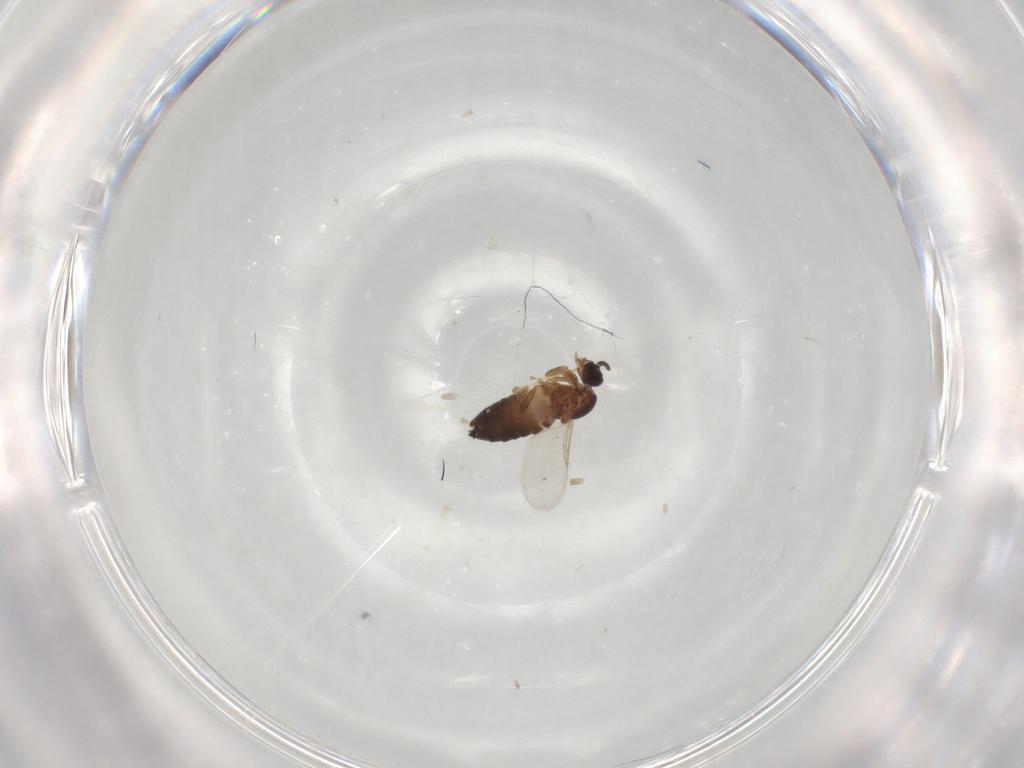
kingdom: Animalia
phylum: Arthropoda
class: Insecta
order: Diptera
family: Scatopsidae
